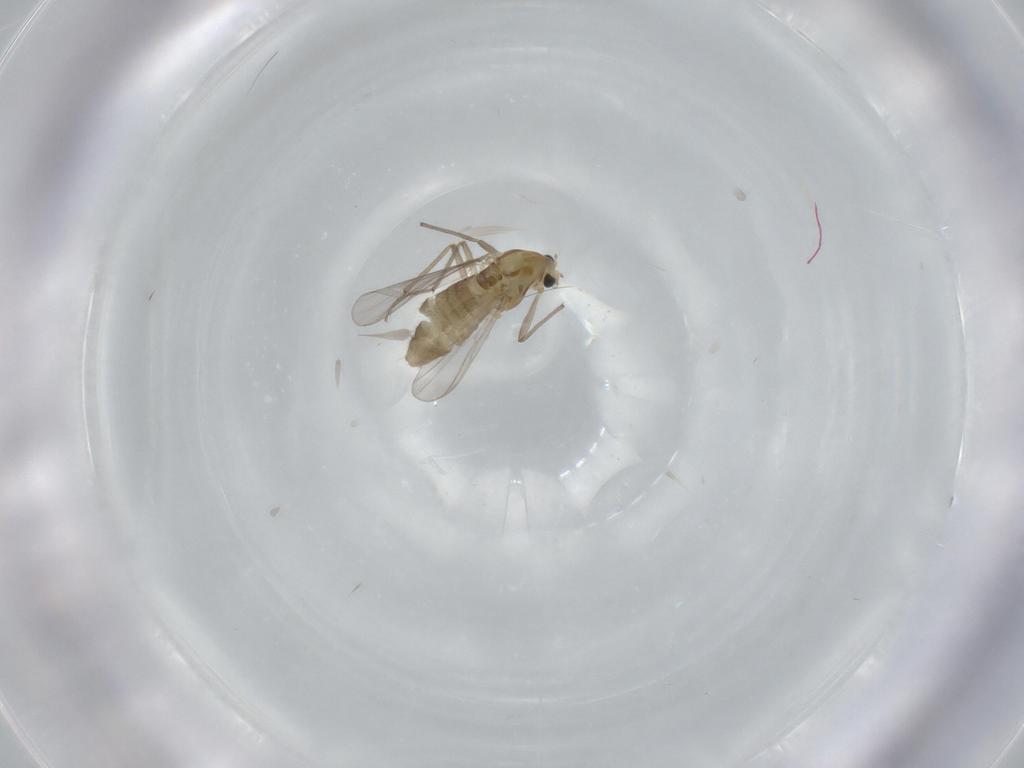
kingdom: Animalia
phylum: Arthropoda
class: Insecta
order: Diptera
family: Chironomidae
